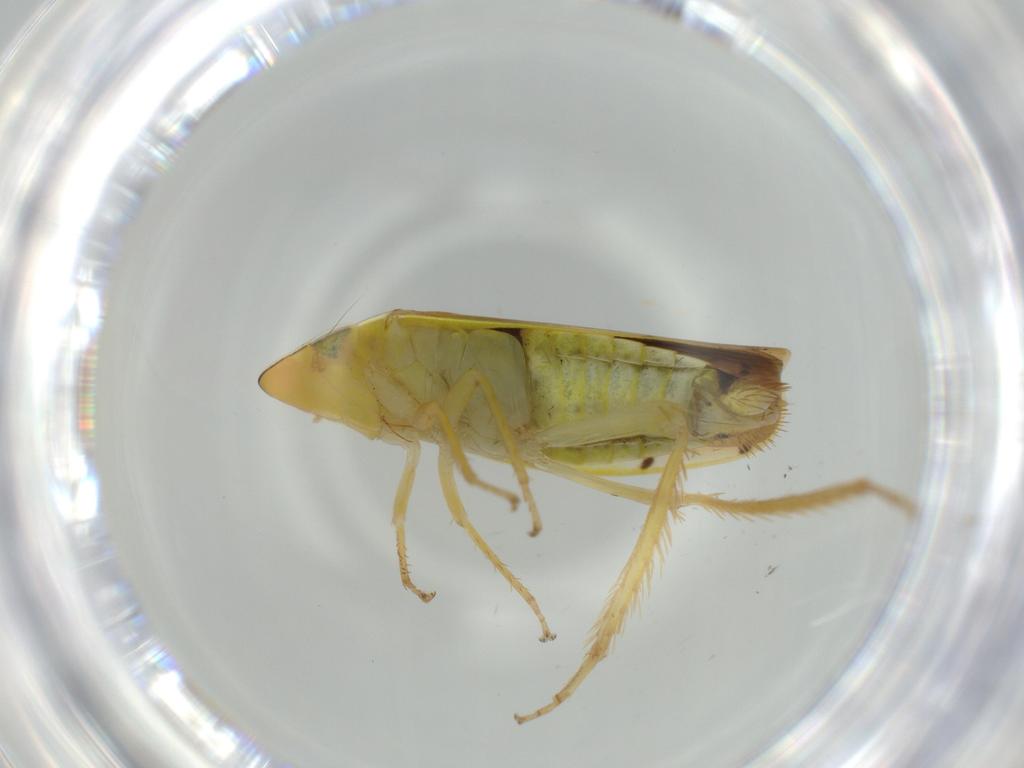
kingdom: Animalia
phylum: Arthropoda
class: Insecta
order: Hemiptera
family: Cicadellidae
